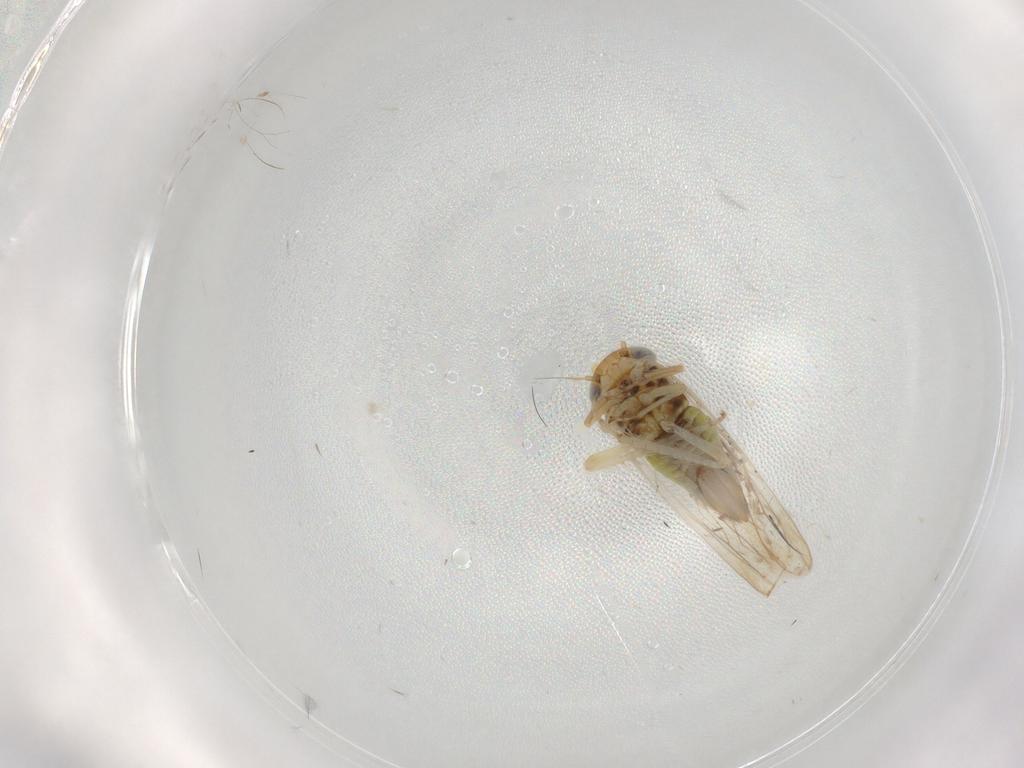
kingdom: Animalia
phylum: Arthropoda
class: Insecta
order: Hemiptera
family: Cicadellidae
